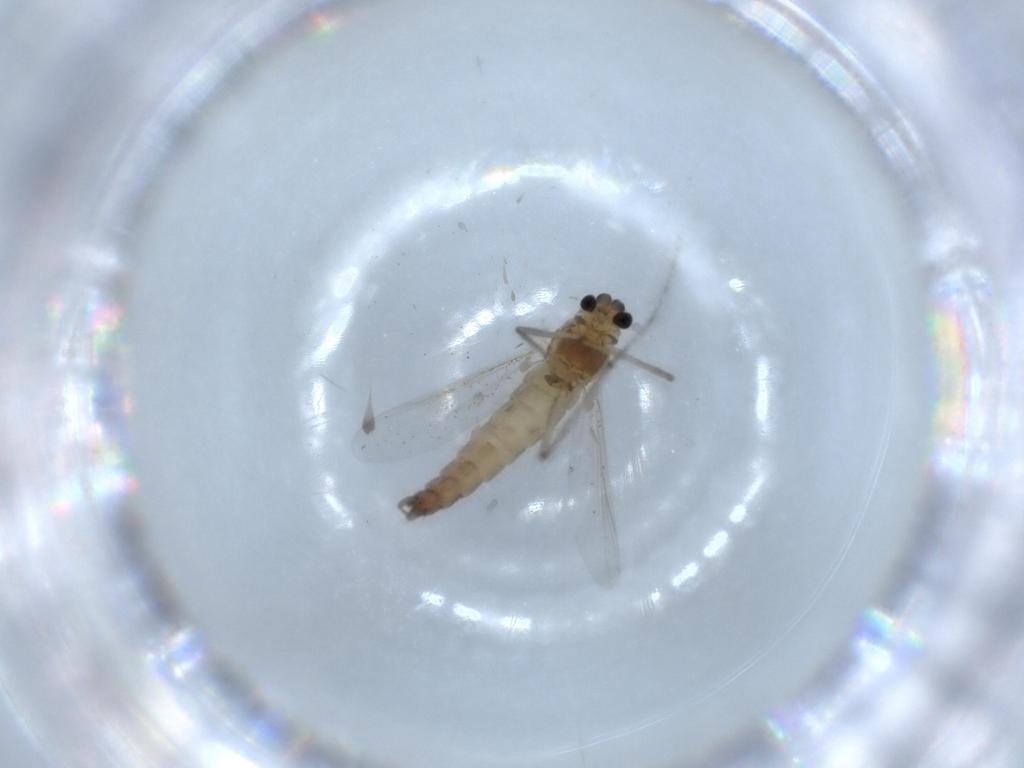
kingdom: Animalia
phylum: Arthropoda
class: Insecta
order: Diptera
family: Chironomidae
